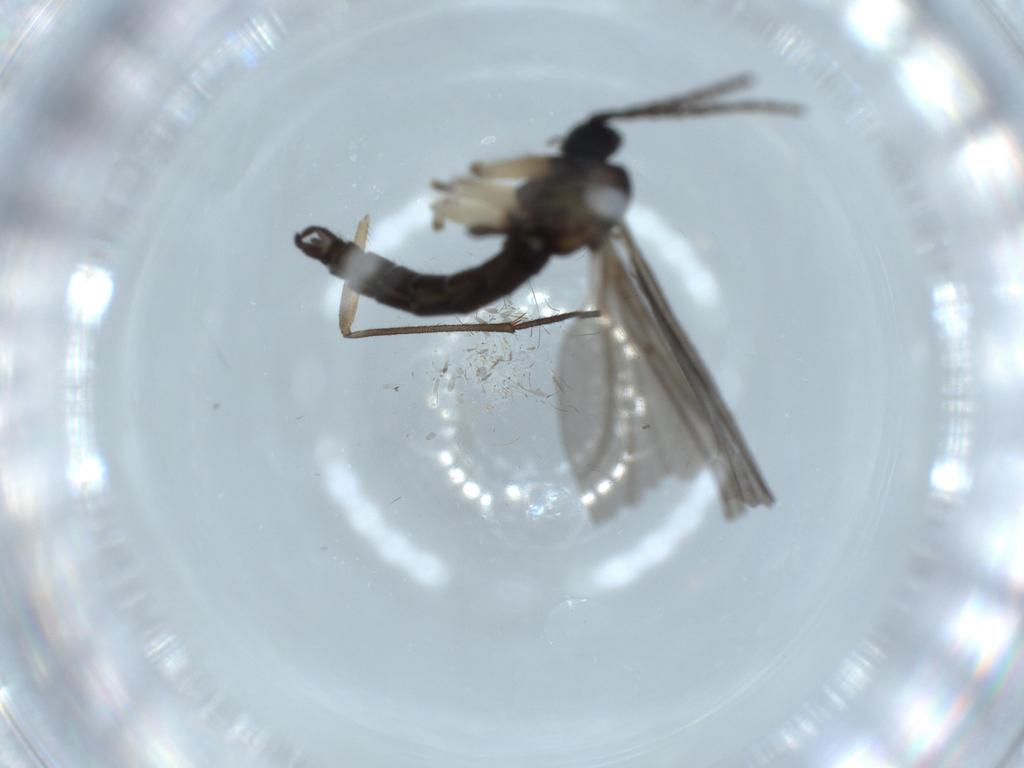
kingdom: Animalia
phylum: Arthropoda
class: Insecta
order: Diptera
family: Sciaridae
